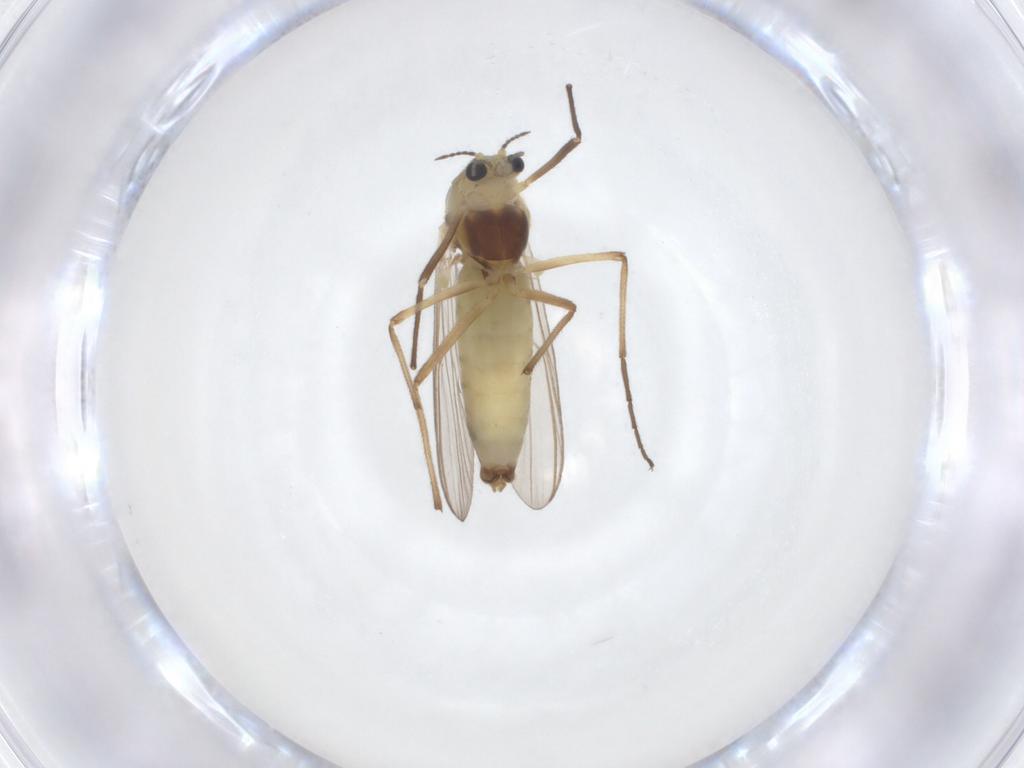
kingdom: Animalia
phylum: Arthropoda
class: Insecta
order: Diptera
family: Chironomidae
